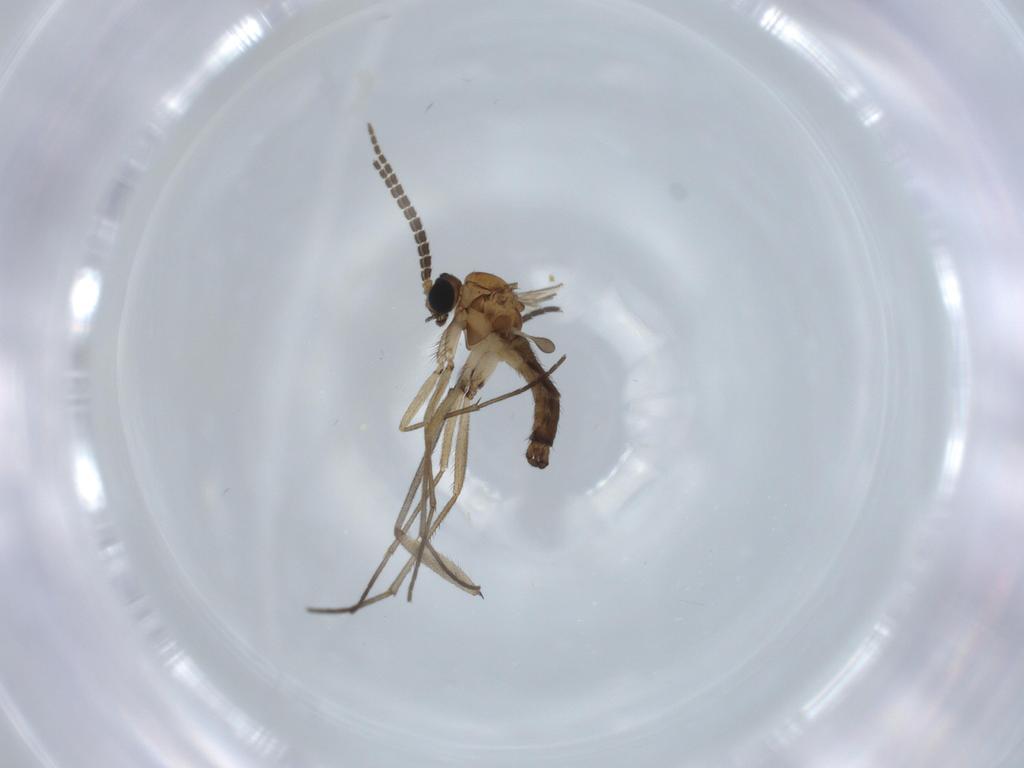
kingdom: Animalia
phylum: Arthropoda
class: Insecta
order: Diptera
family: Sciaridae
